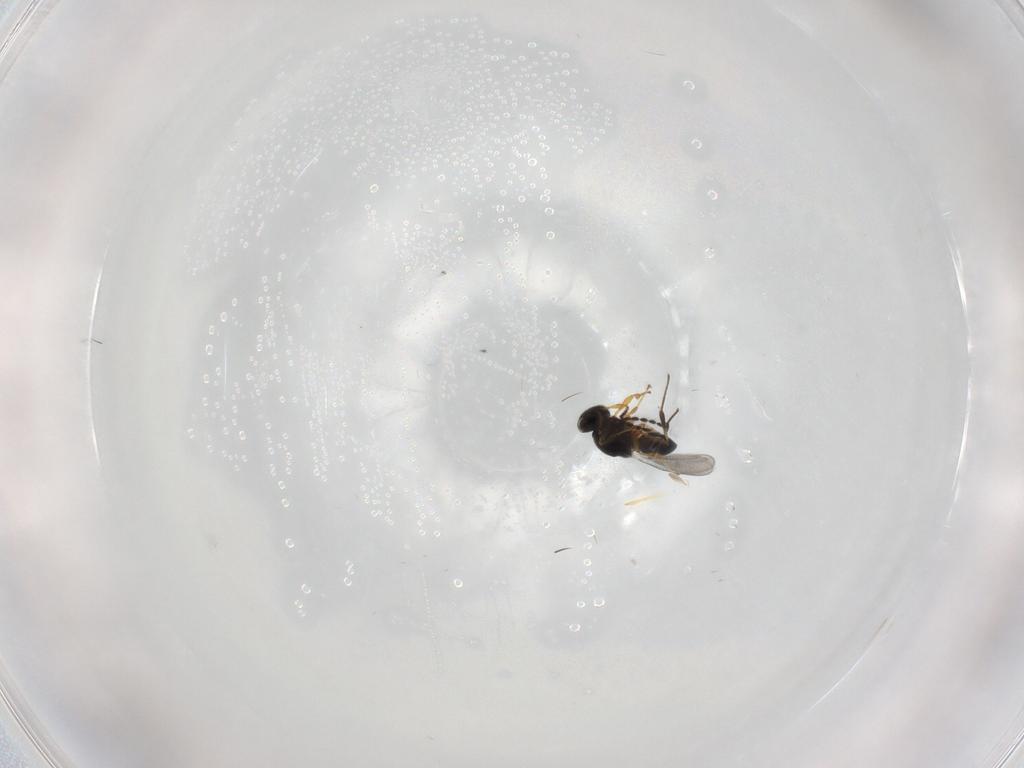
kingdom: Animalia
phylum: Arthropoda
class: Insecta
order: Hymenoptera
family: Platygastridae
